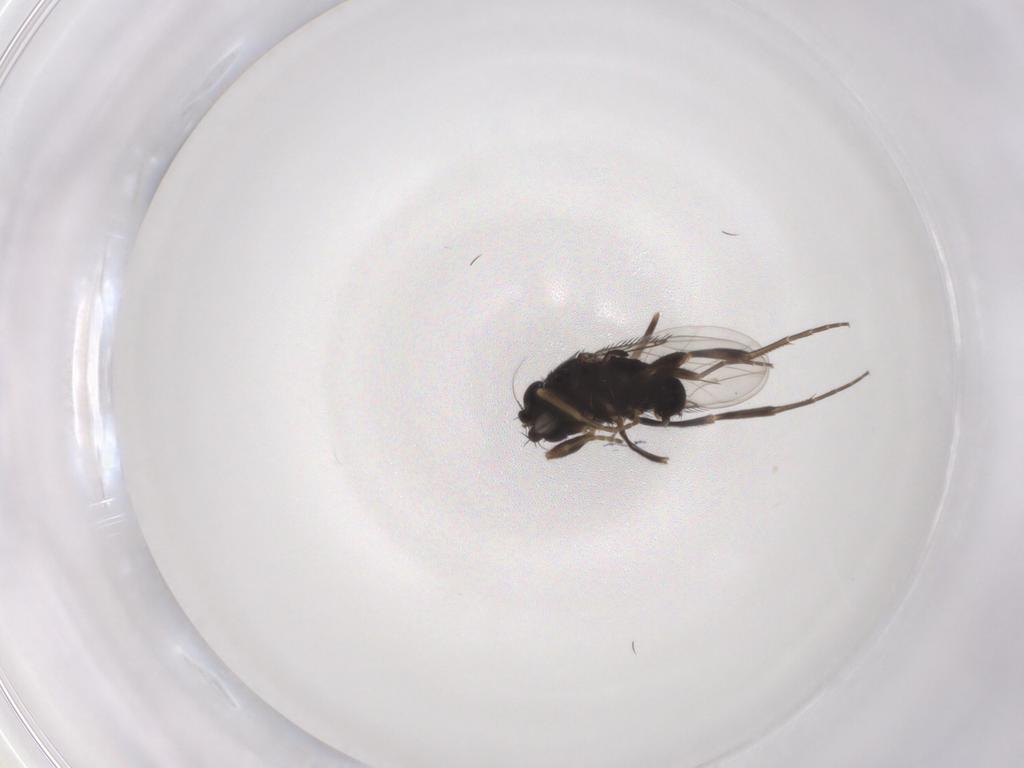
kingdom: Animalia
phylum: Arthropoda
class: Insecta
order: Diptera
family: Phoridae
